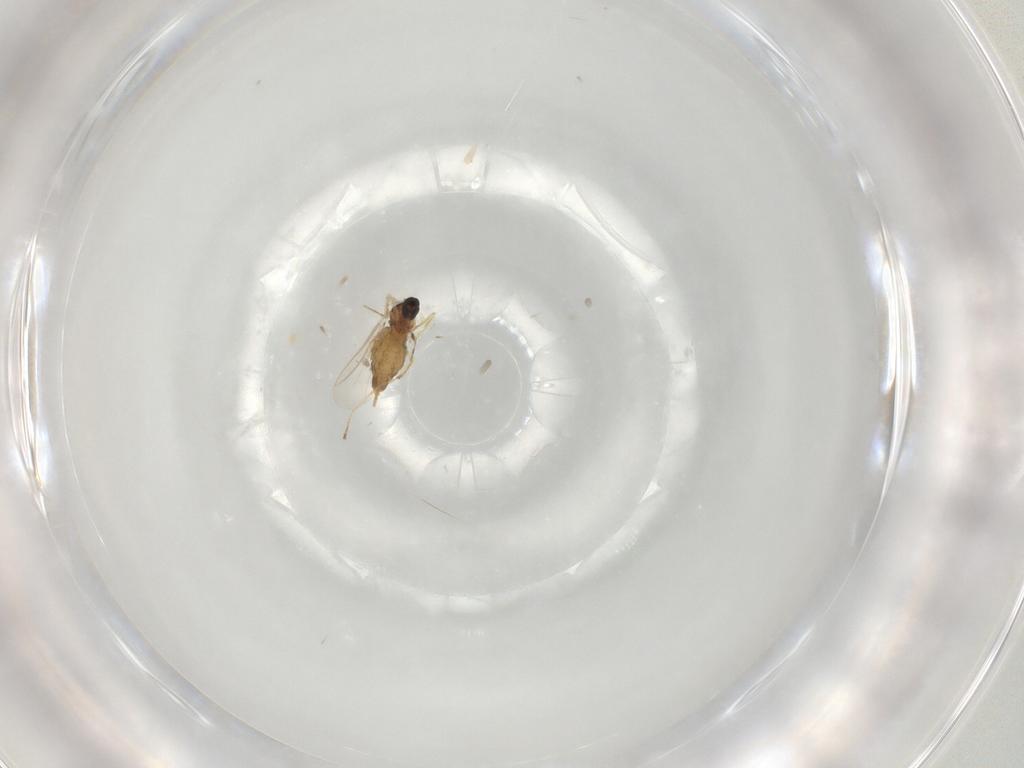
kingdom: Animalia
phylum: Arthropoda
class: Insecta
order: Diptera
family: Cecidomyiidae
